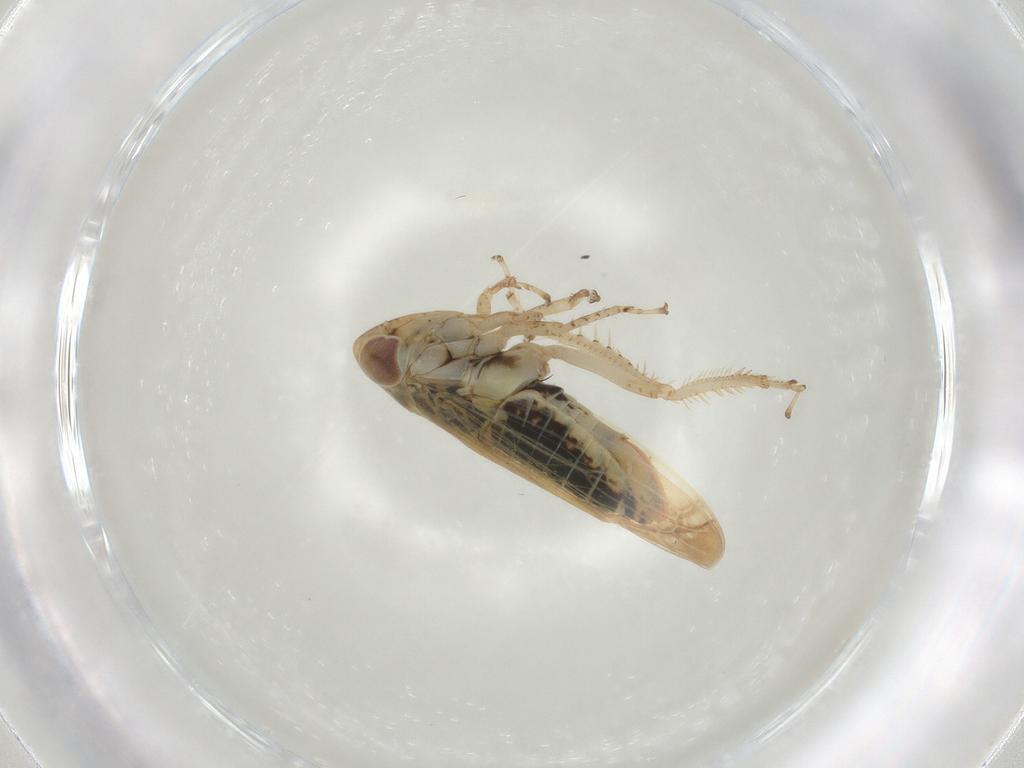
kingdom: Animalia
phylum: Arthropoda
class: Insecta
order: Hemiptera
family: Cicadellidae
